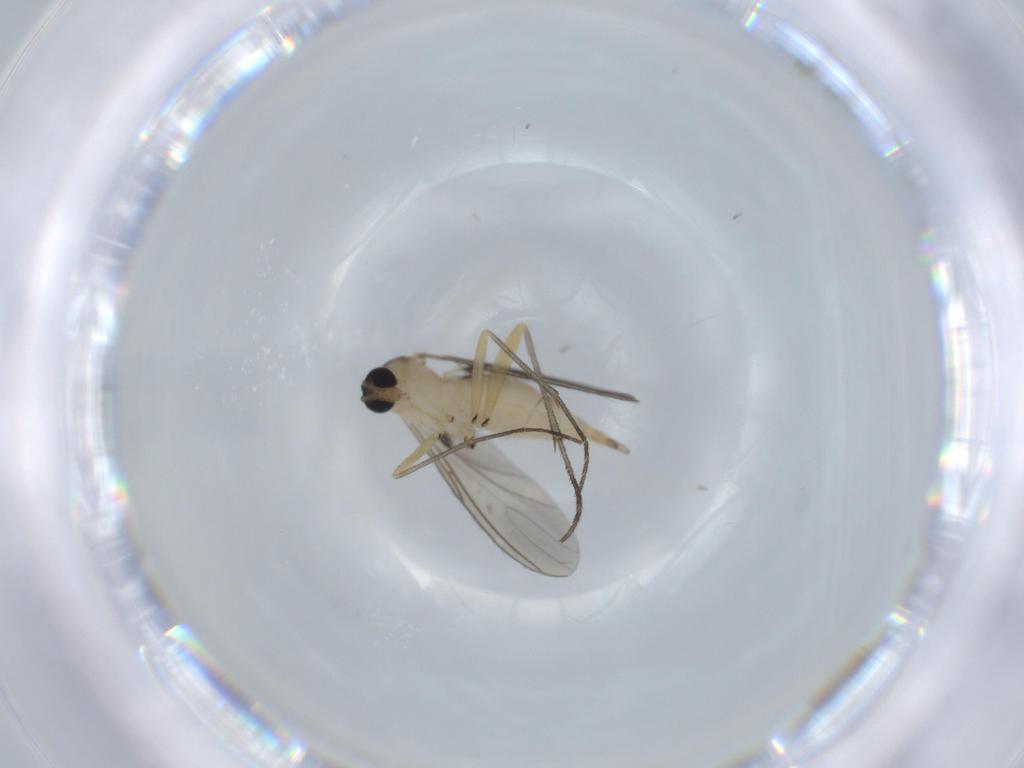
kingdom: Animalia
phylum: Arthropoda
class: Insecta
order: Diptera
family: Sciaridae
